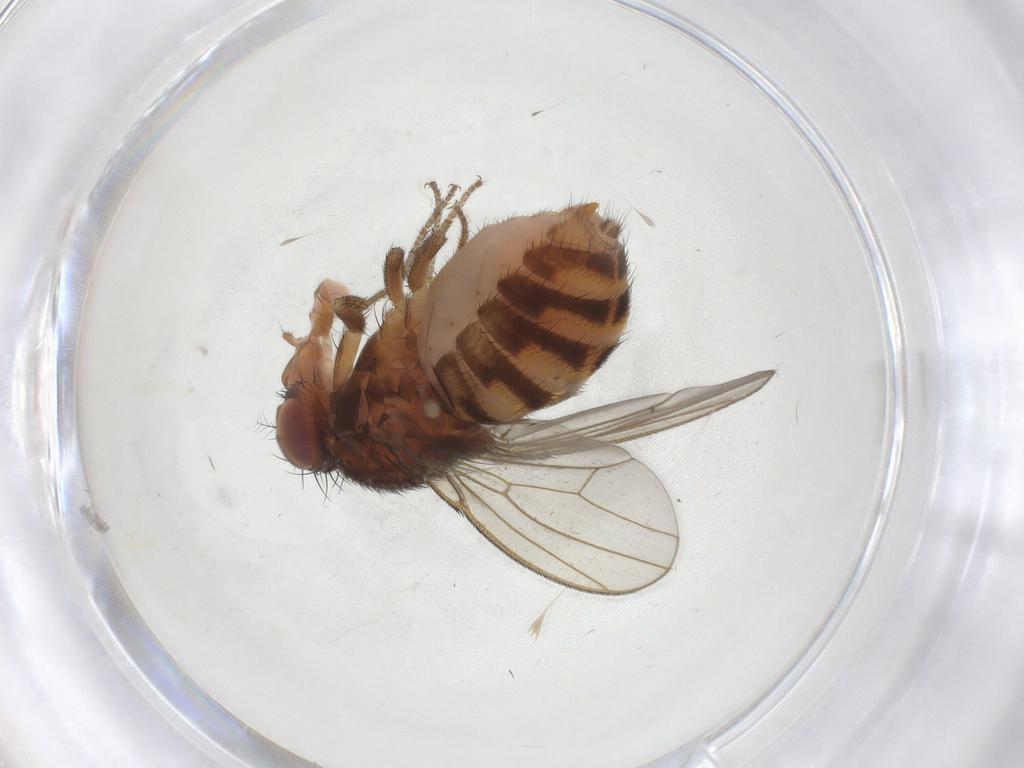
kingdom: Animalia
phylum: Arthropoda
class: Insecta
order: Diptera
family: Drosophilidae
